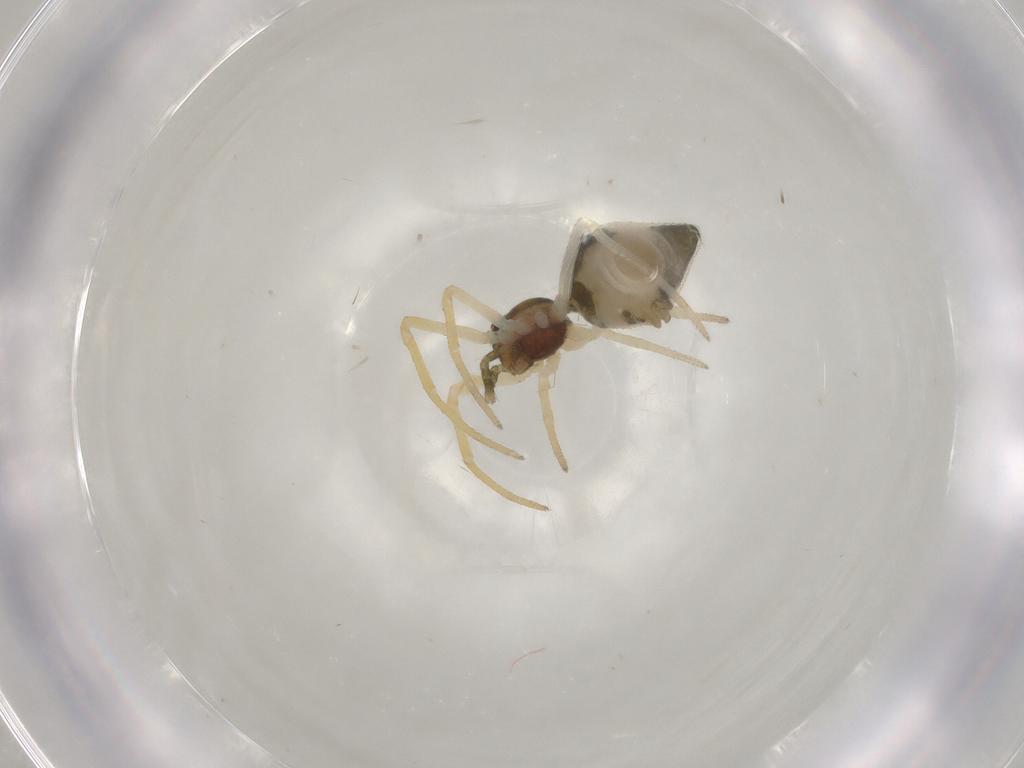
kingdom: Animalia
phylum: Arthropoda
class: Arachnida
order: Araneae
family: Theridiidae
